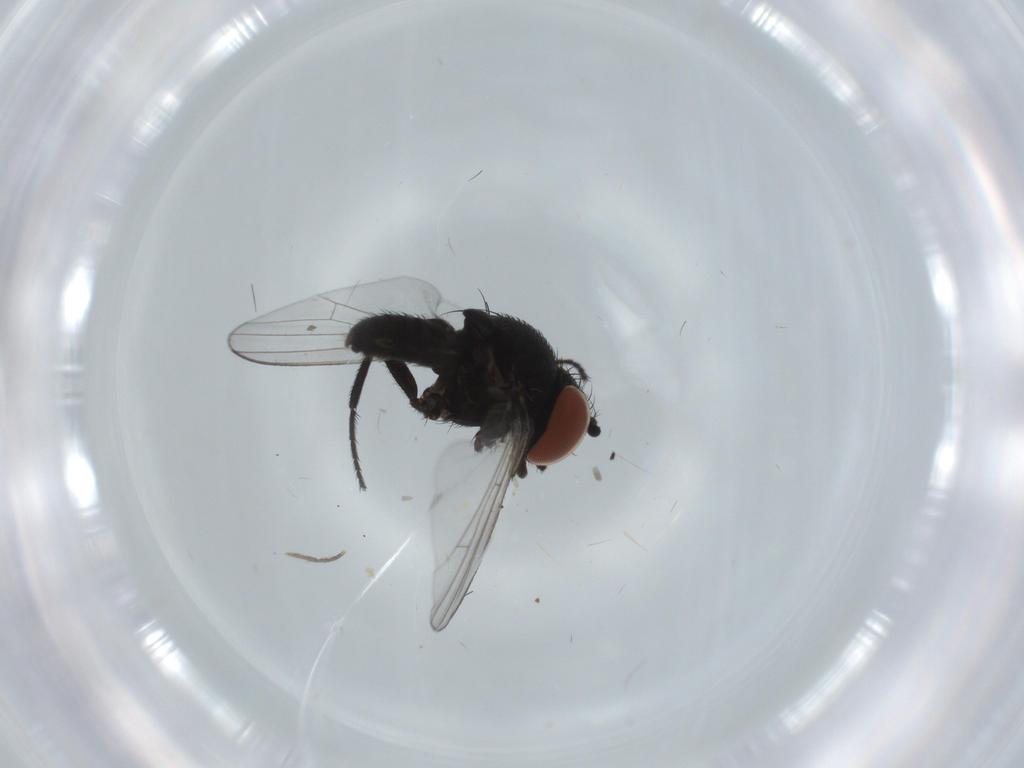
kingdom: Animalia
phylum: Arthropoda
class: Insecta
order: Diptera
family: Milichiidae
